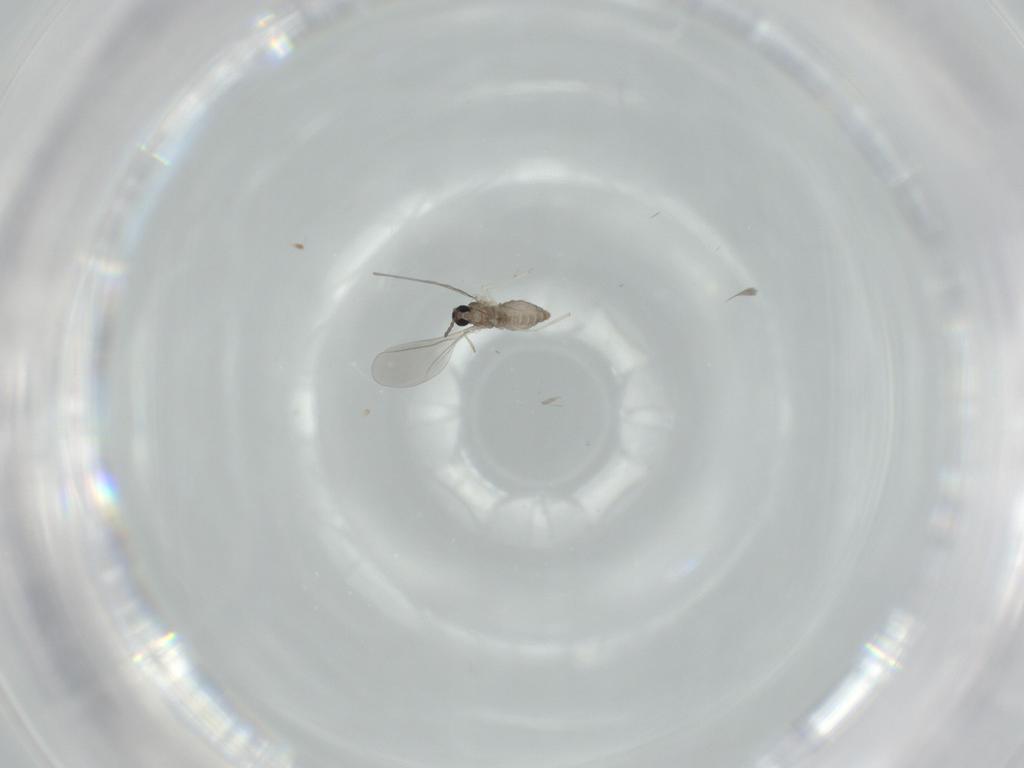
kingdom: Animalia
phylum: Arthropoda
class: Insecta
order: Diptera
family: Cecidomyiidae
